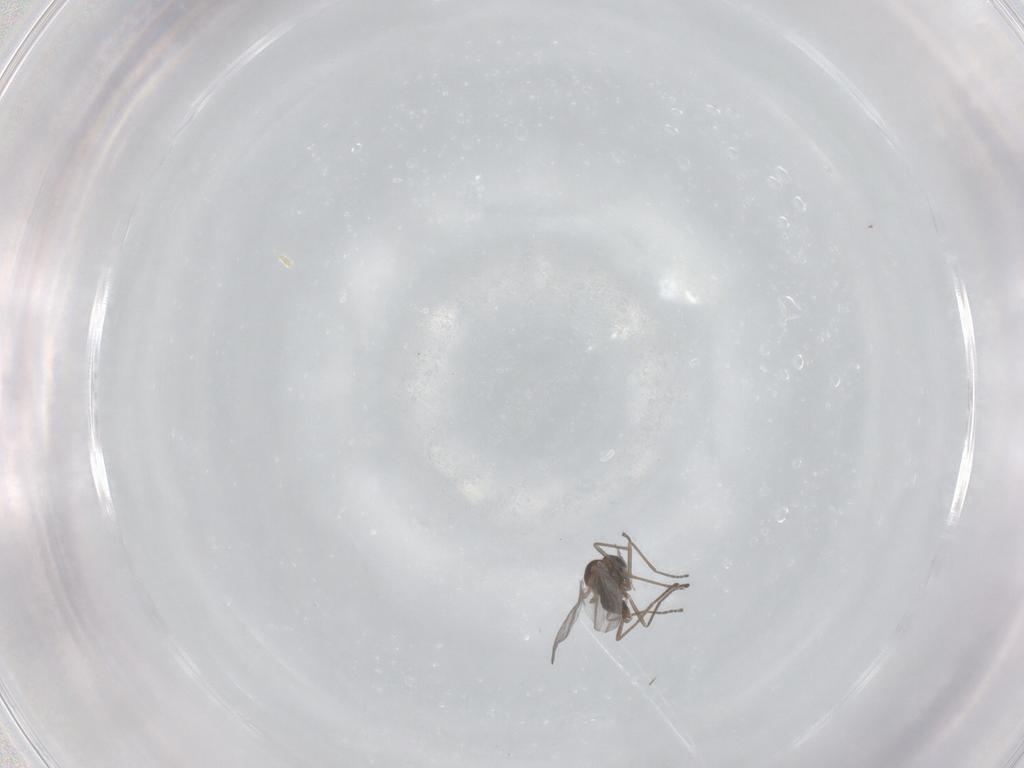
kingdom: Animalia
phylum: Arthropoda
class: Insecta
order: Diptera
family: Cecidomyiidae
